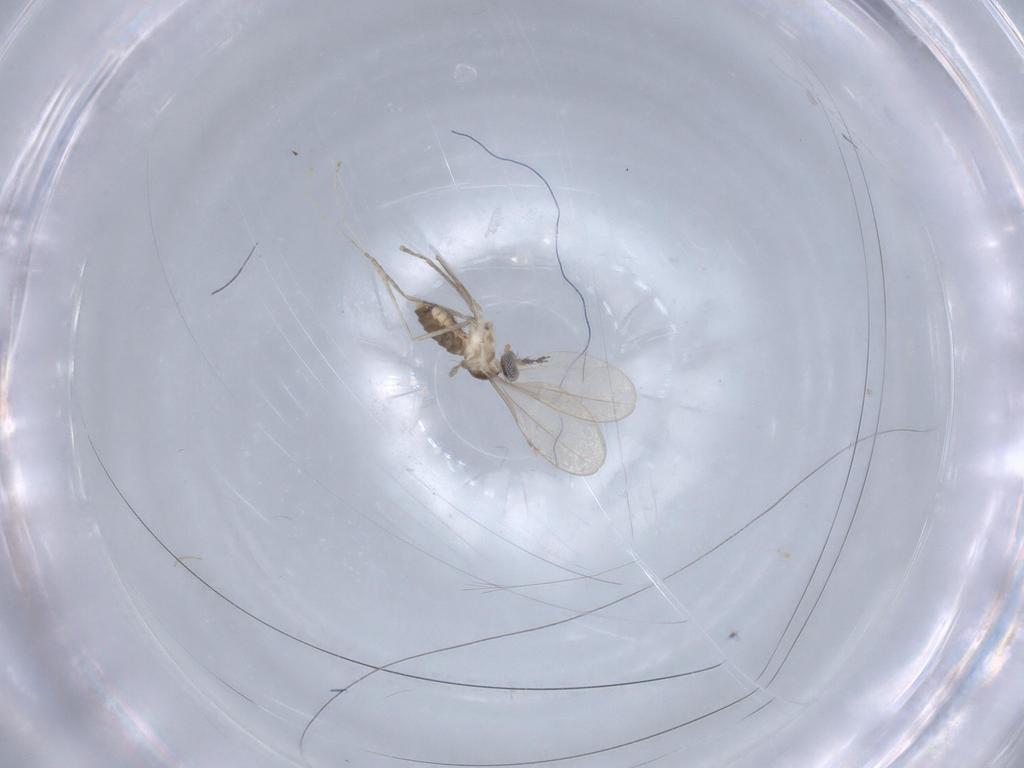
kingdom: Animalia
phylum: Arthropoda
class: Insecta
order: Diptera
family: Cecidomyiidae
